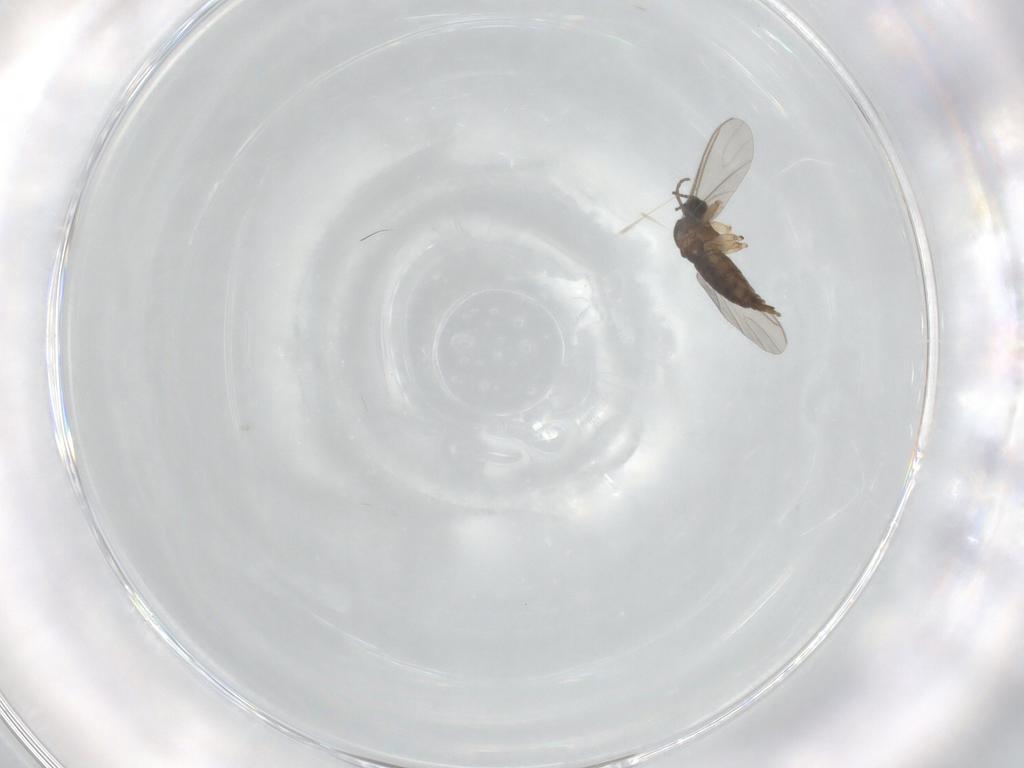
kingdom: Animalia
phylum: Arthropoda
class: Insecta
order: Diptera
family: Sciaridae
